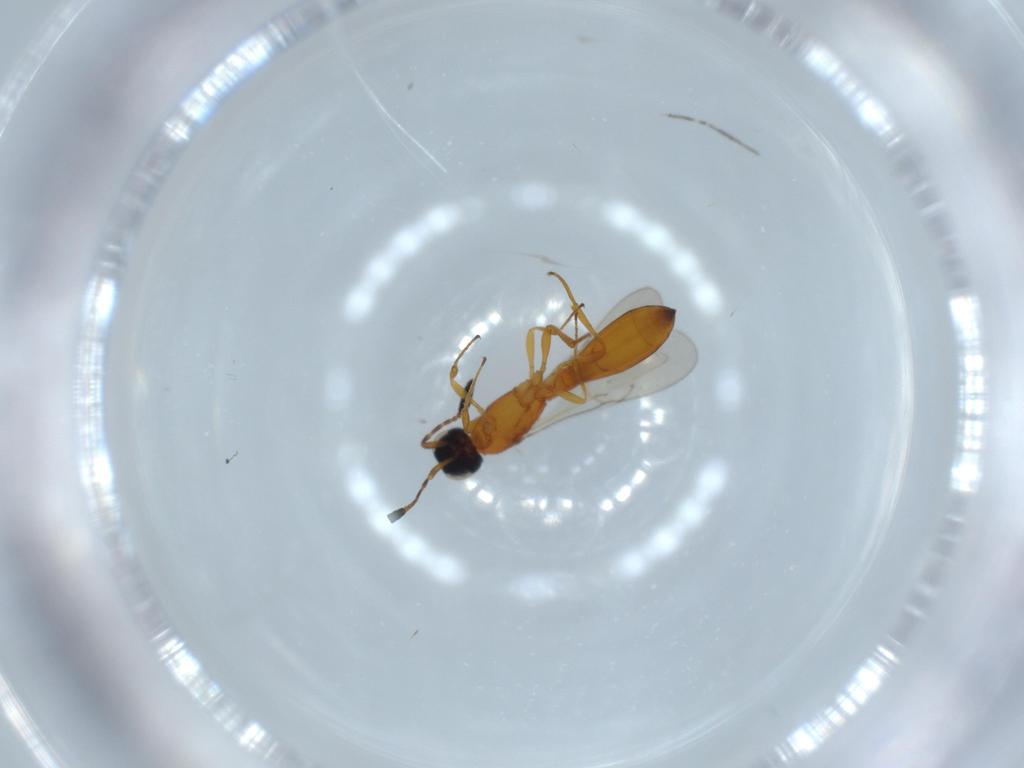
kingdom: Animalia
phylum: Arthropoda
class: Insecta
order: Hymenoptera
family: Scelionidae
